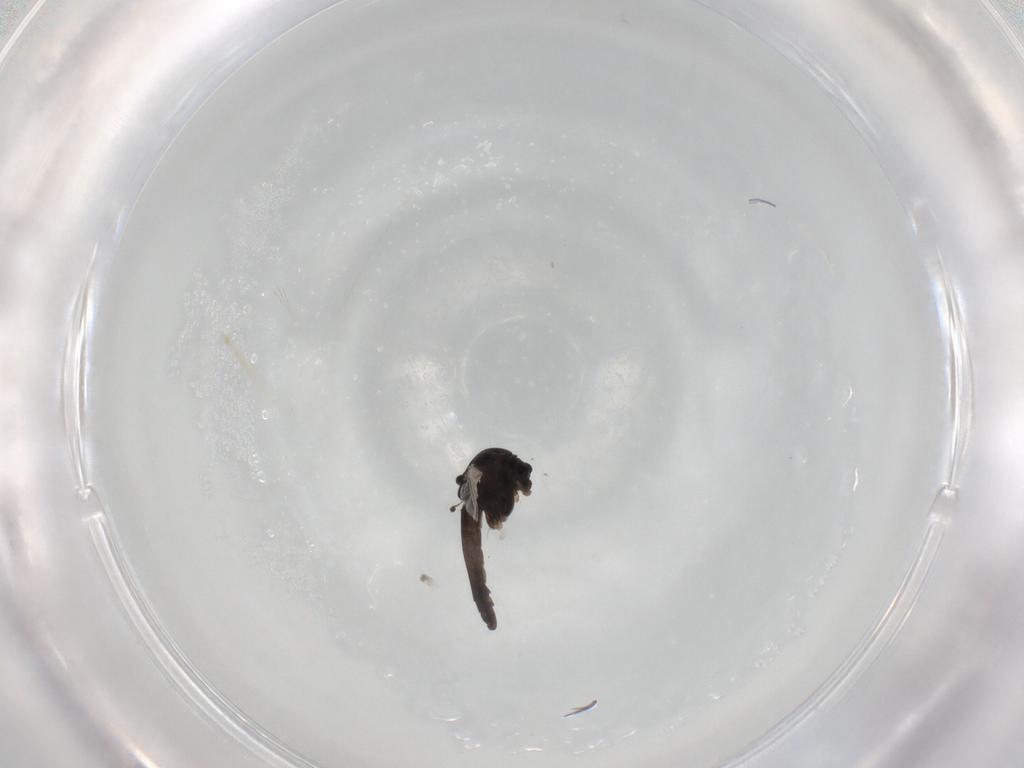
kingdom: Animalia
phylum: Arthropoda
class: Insecta
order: Diptera
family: Chironomidae
